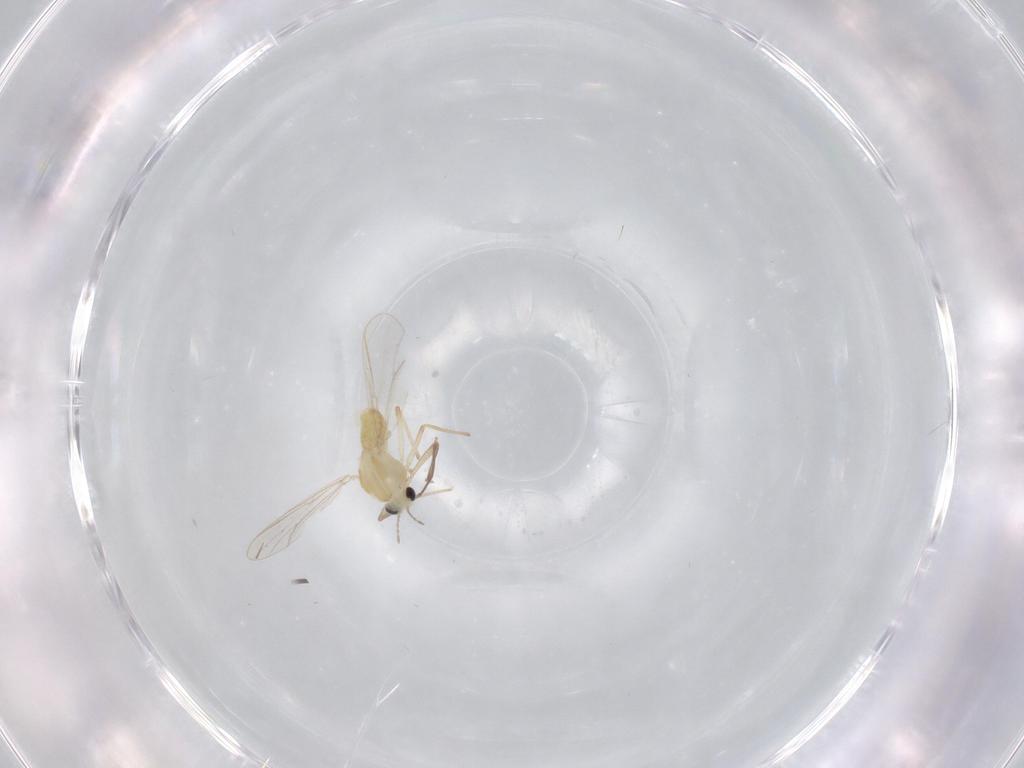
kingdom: Animalia
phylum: Arthropoda
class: Insecta
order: Diptera
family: Chironomidae
